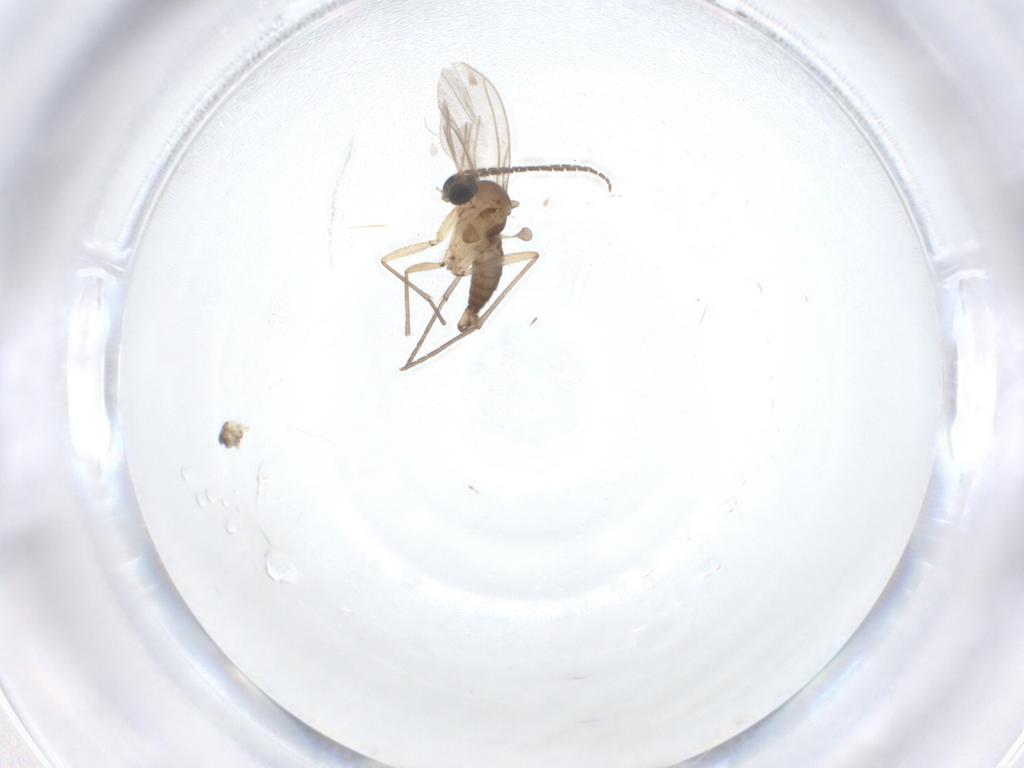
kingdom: Animalia
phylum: Arthropoda
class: Insecta
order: Diptera
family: Sciaridae
